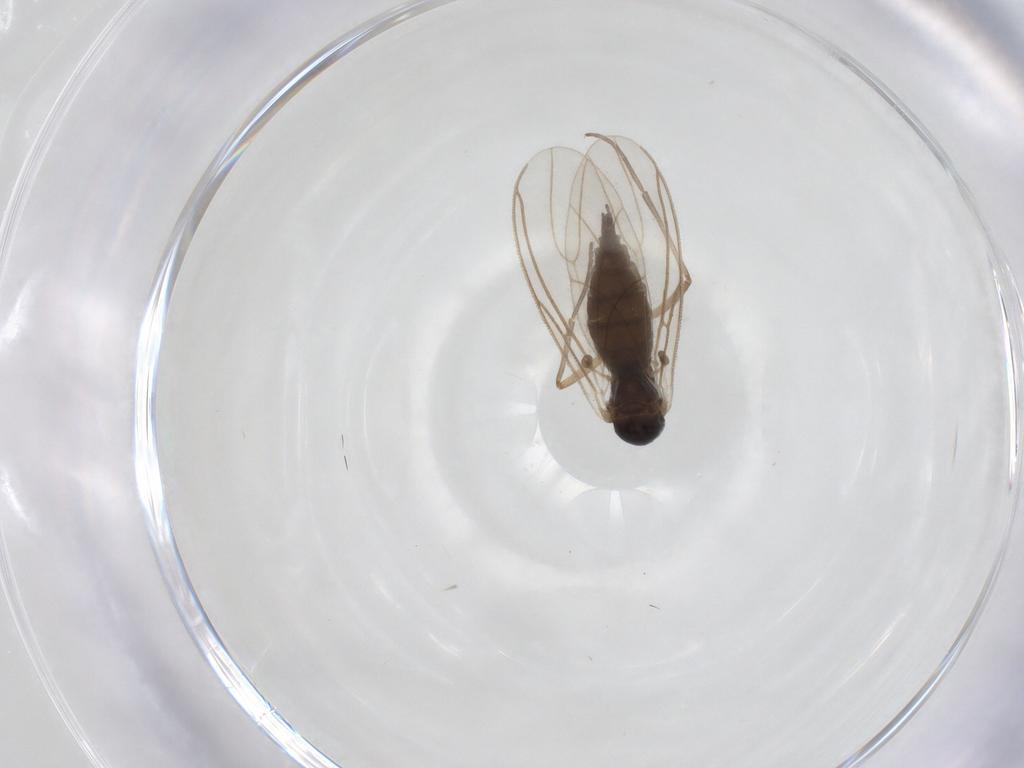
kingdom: Animalia
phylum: Arthropoda
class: Insecta
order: Diptera
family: Sciaridae
